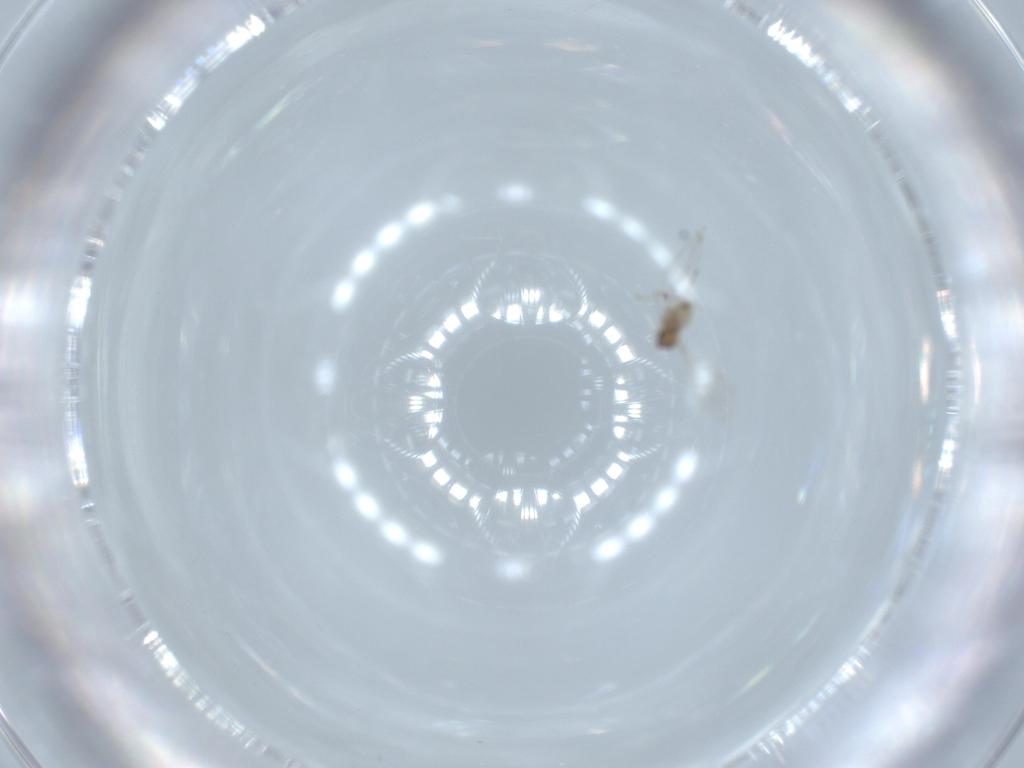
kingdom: Animalia
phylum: Arthropoda
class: Insecta
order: Diptera
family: Cecidomyiidae
